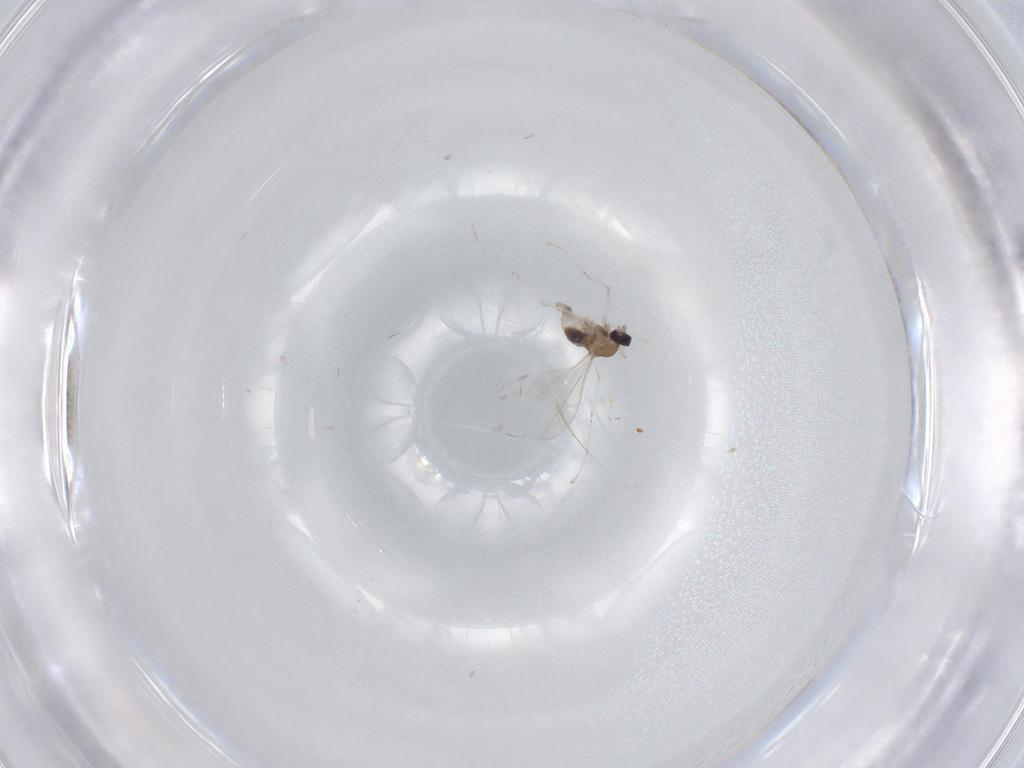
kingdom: Animalia
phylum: Arthropoda
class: Insecta
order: Diptera
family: Cecidomyiidae
